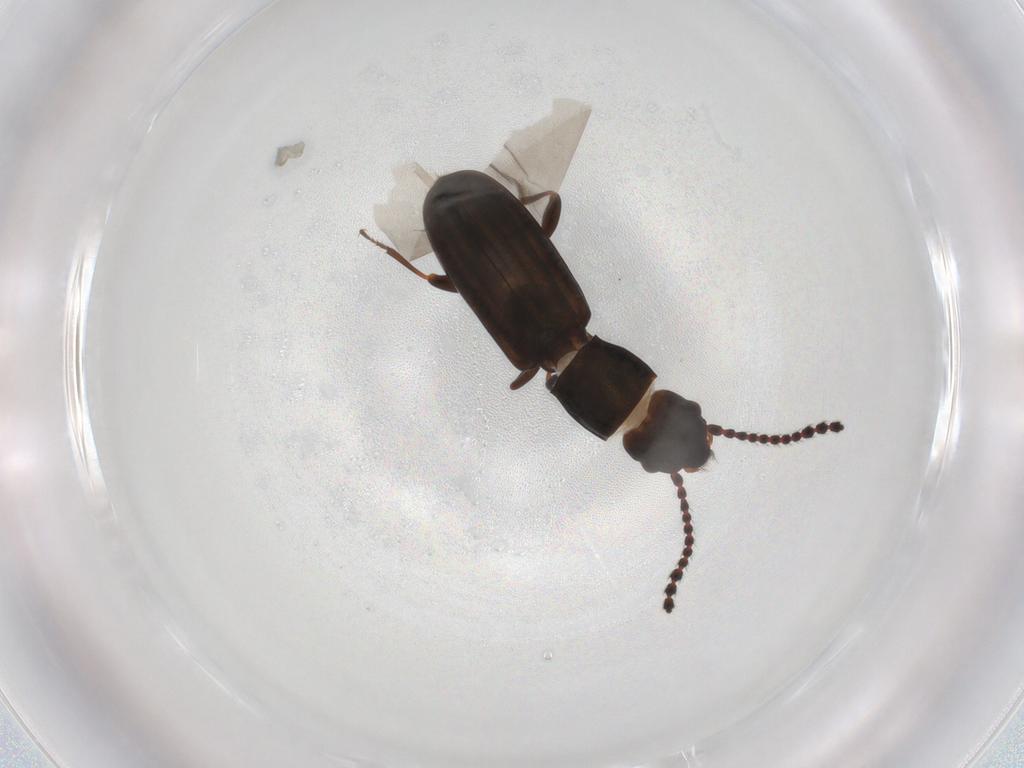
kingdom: Animalia
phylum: Arthropoda
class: Insecta
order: Coleoptera
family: Laemophloeidae
